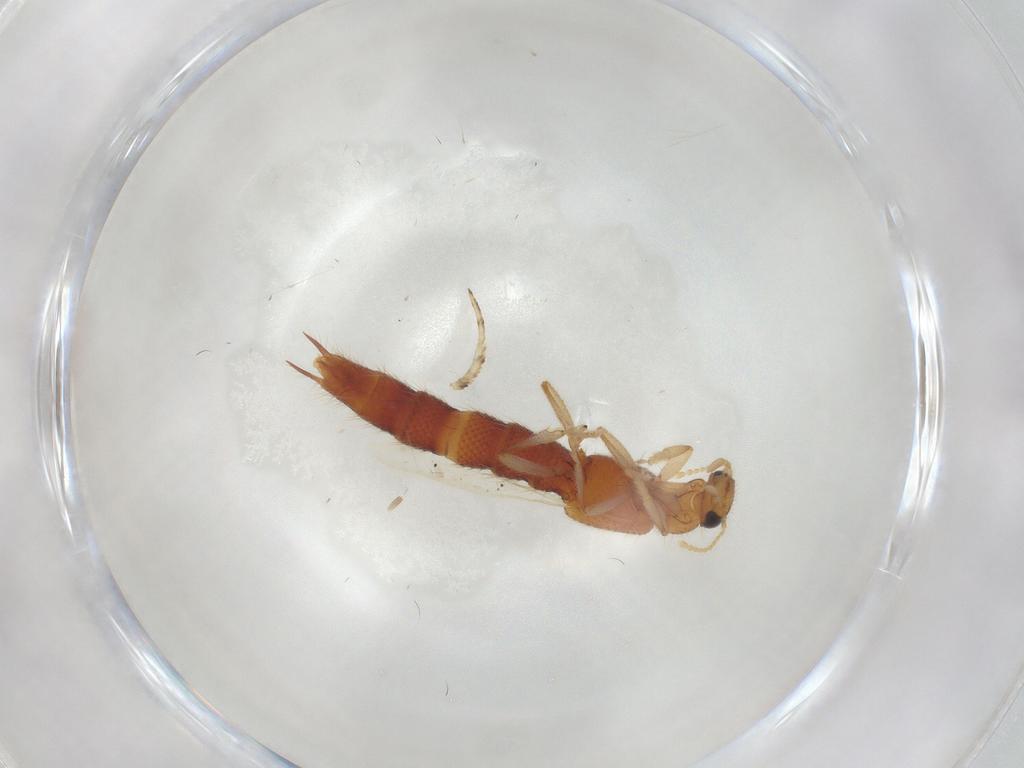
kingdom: Animalia
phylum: Arthropoda
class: Insecta
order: Coleoptera
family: Staphylinidae
